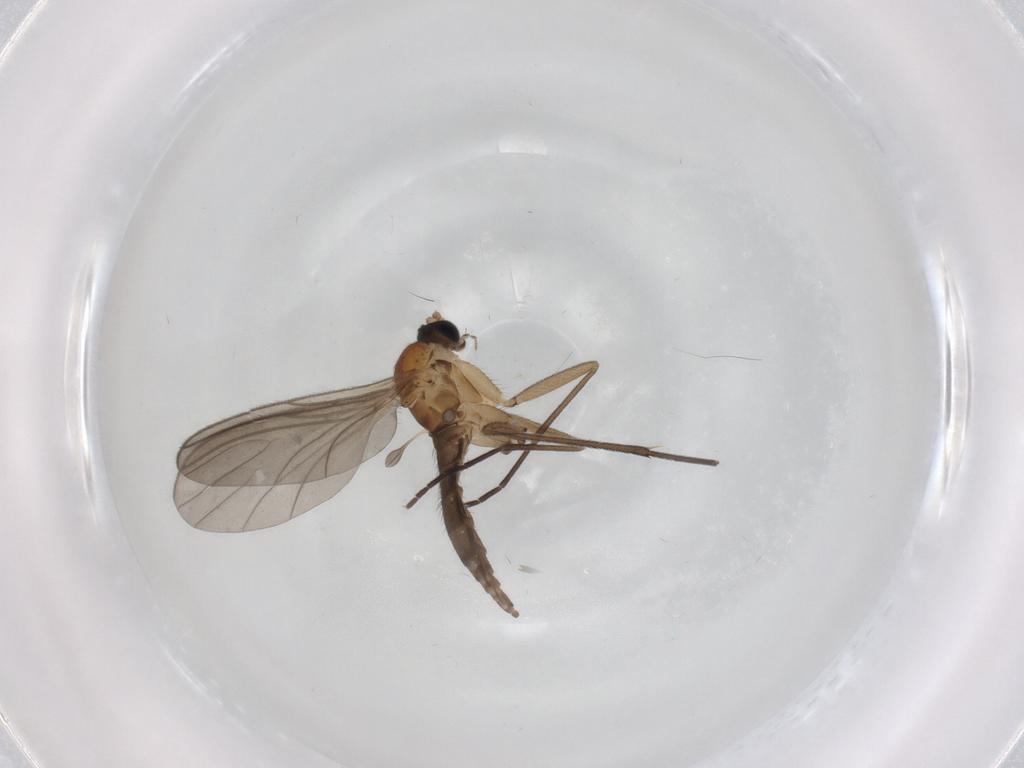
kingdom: Animalia
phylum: Arthropoda
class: Insecta
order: Diptera
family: Sciaridae
